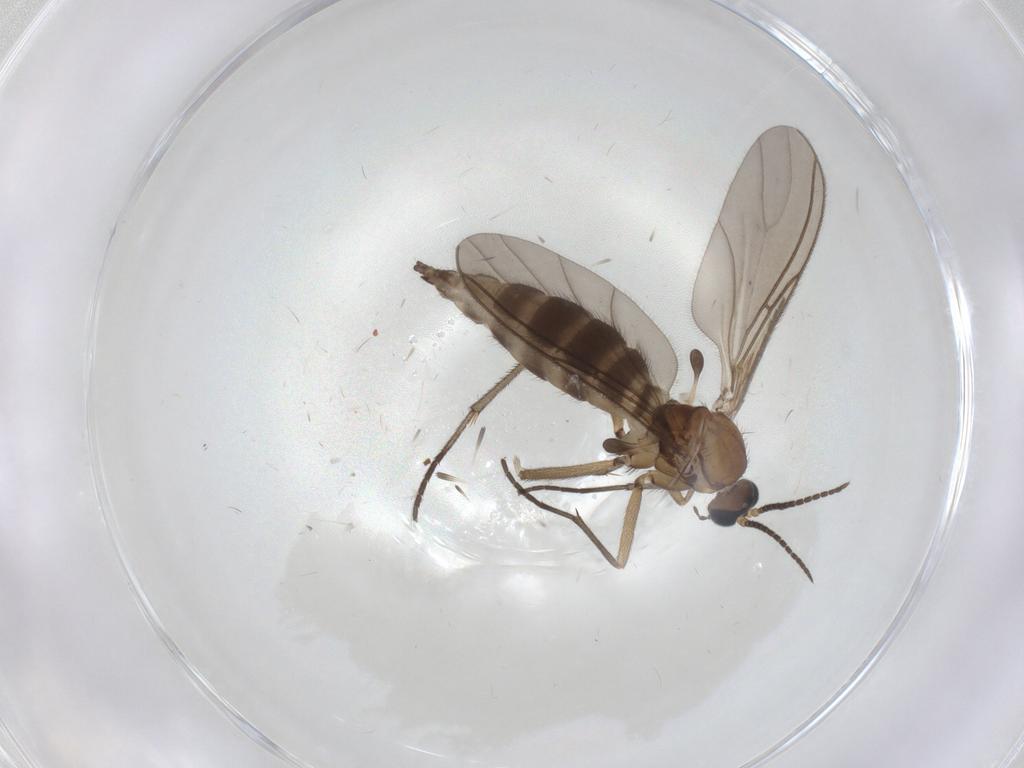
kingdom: Animalia
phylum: Arthropoda
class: Insecta
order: Diptera
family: Sciaridae
